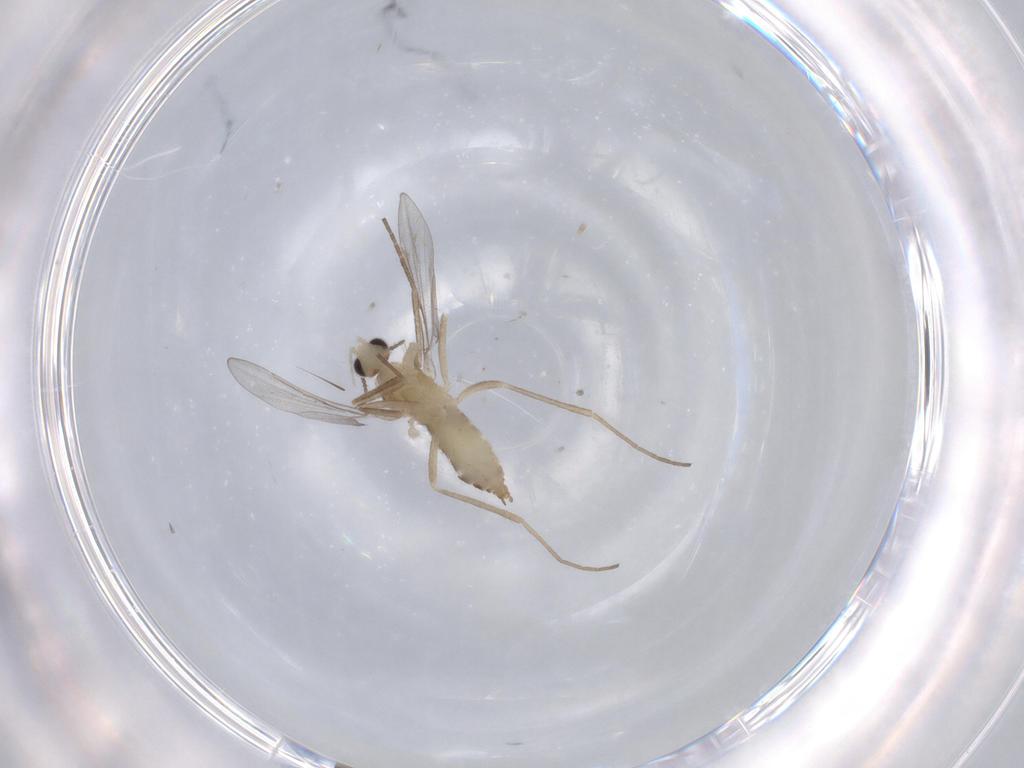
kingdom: Animalia
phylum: Arthropoda
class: Insecta
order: Diptera
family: Cecidomyiidae
